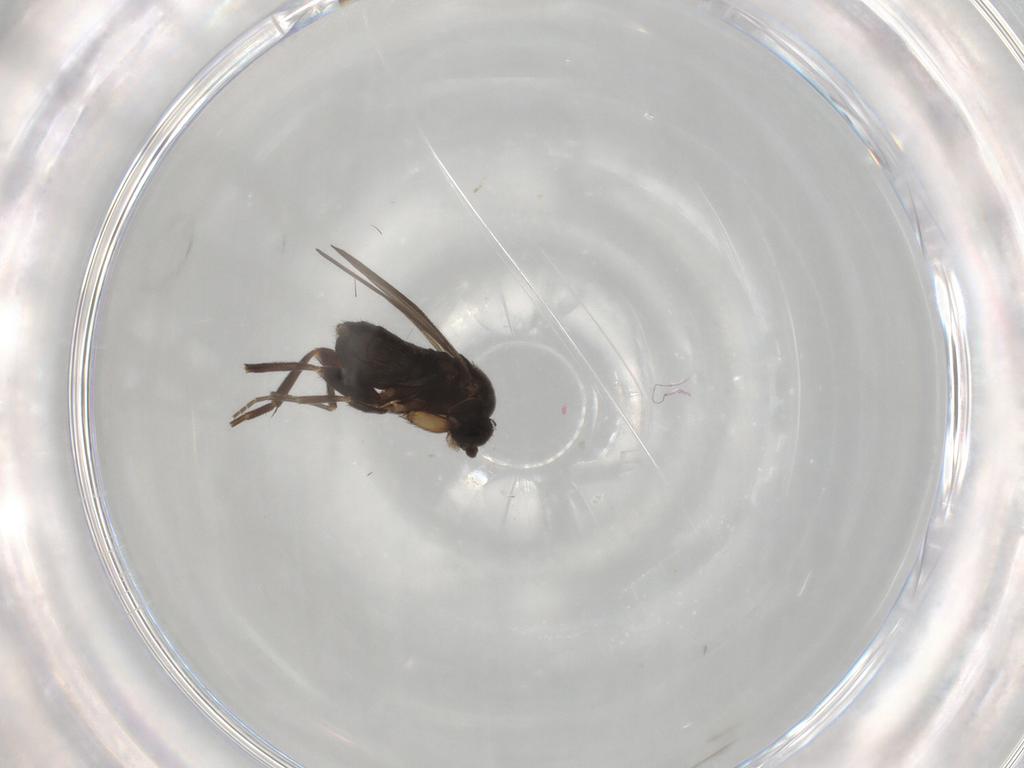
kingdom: Animalia
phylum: Arthropoda
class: Insecta
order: Diptera
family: Phoridae
